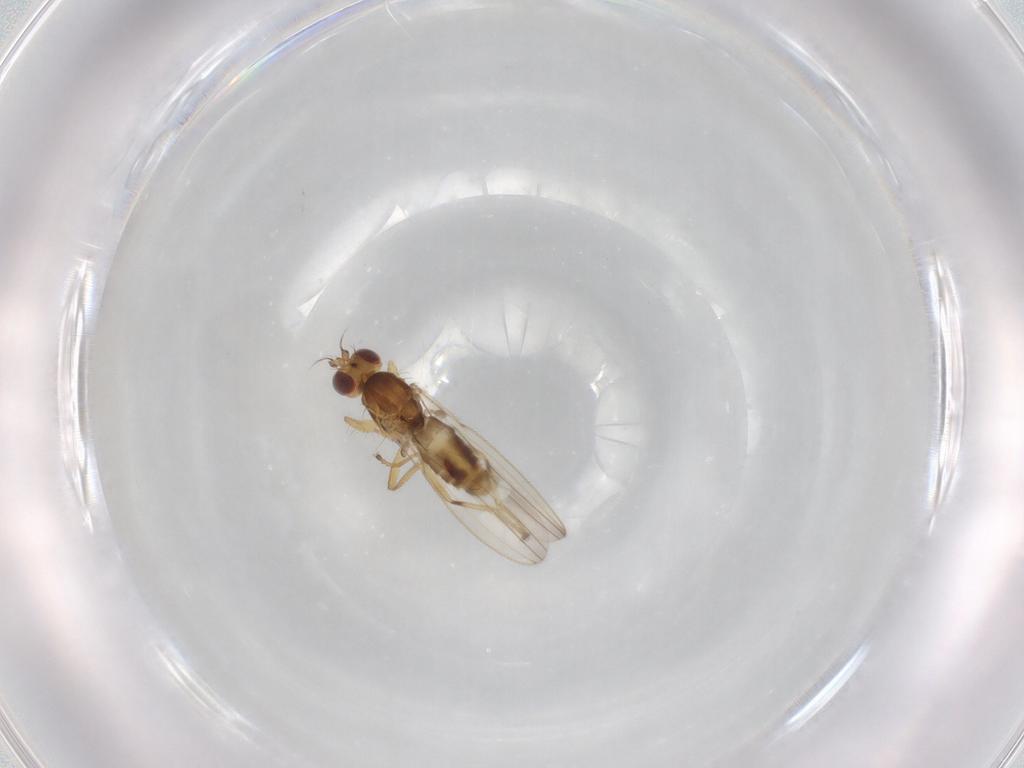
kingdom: Animalia
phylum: Arthropoda
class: Insecta
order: Diptera
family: Periscelididae
